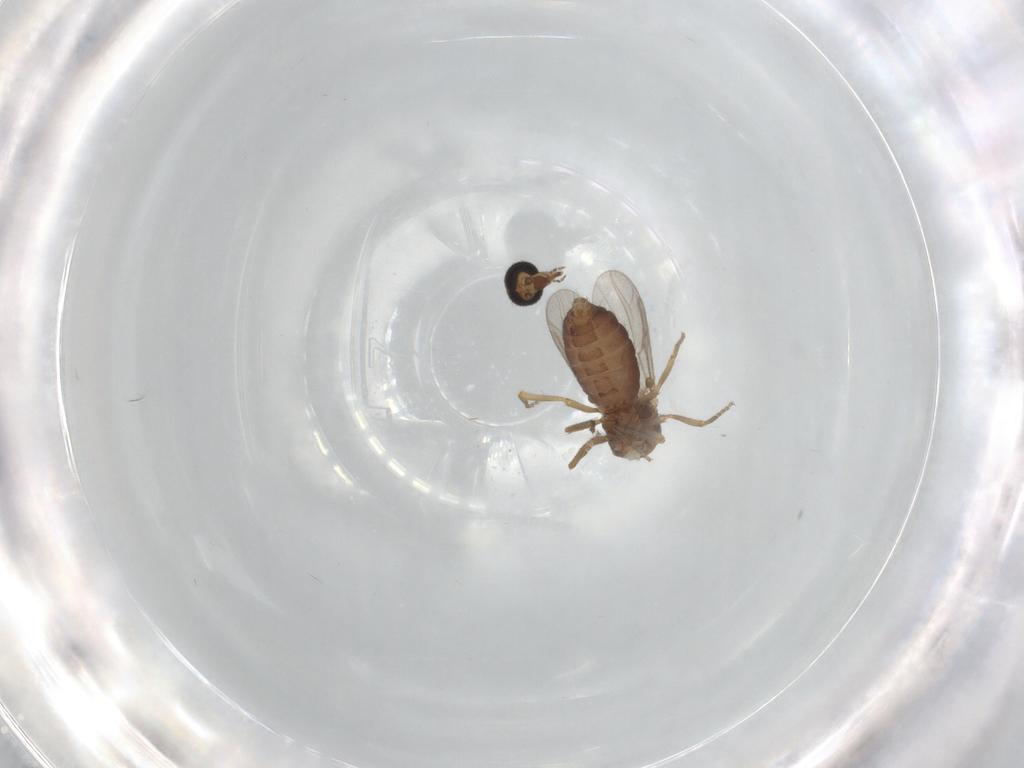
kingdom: Animalia
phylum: Arthropoda
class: Insecta
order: Diptera
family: Ceratopogonidae
